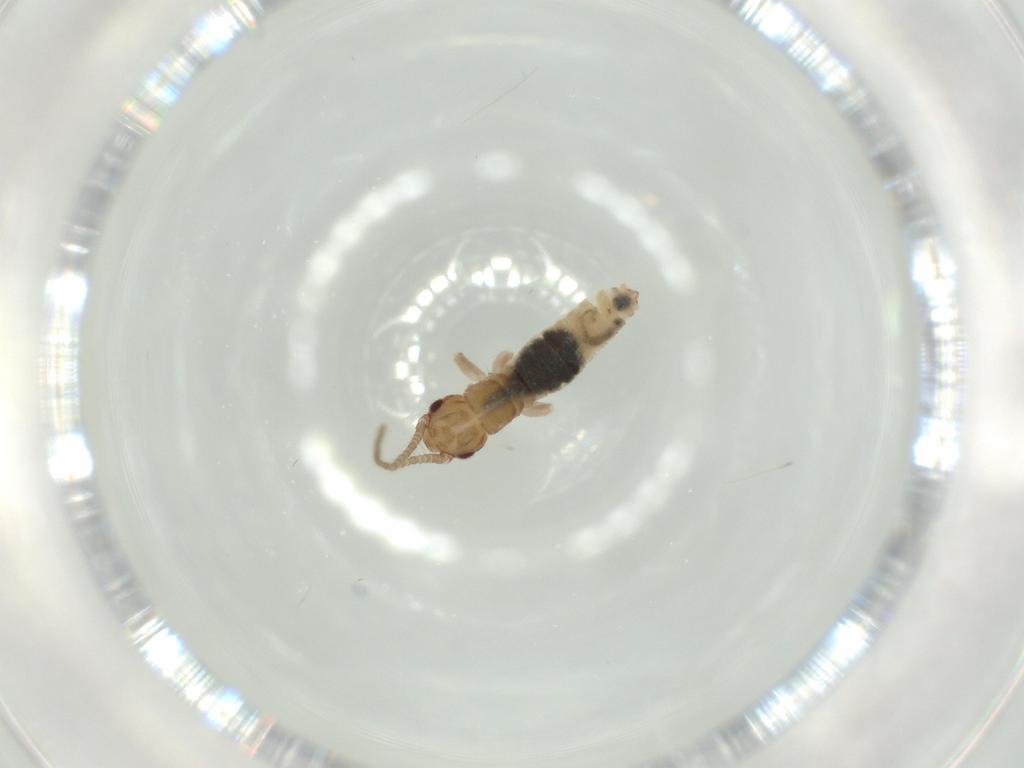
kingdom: Animalia
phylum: Arthropoda
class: Insecta
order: Orthoptera
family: Mogoplistidae
